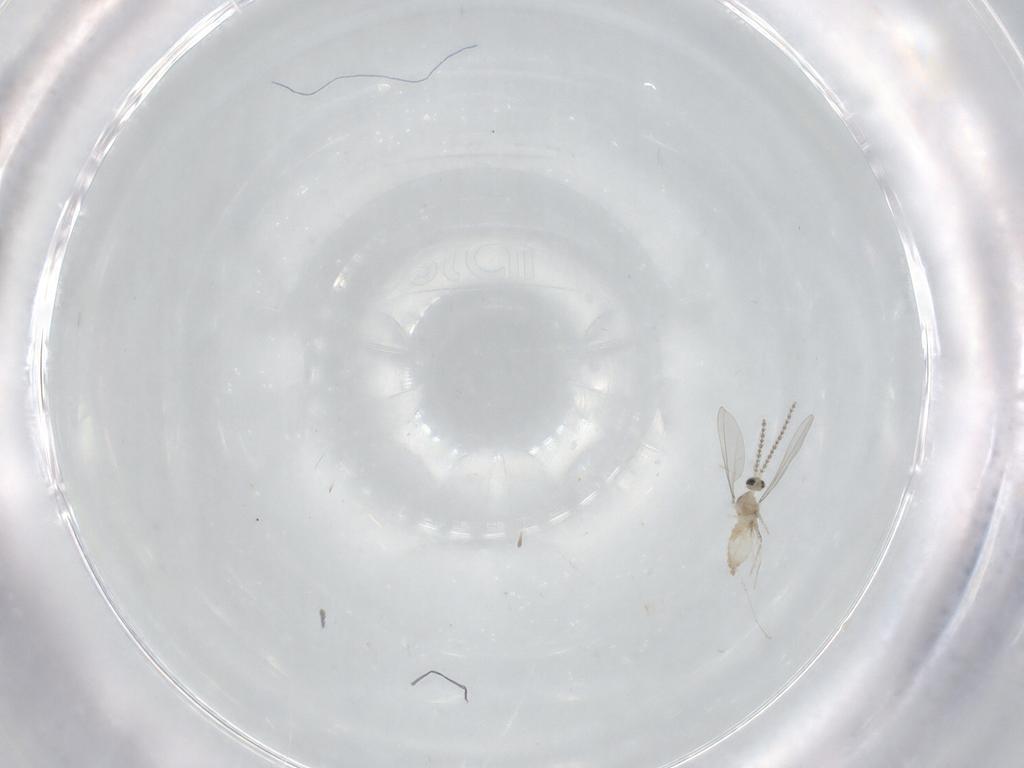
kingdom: Animalia
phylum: Arthropoda
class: Insecta
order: Diptera
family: Cecidomyiidae
